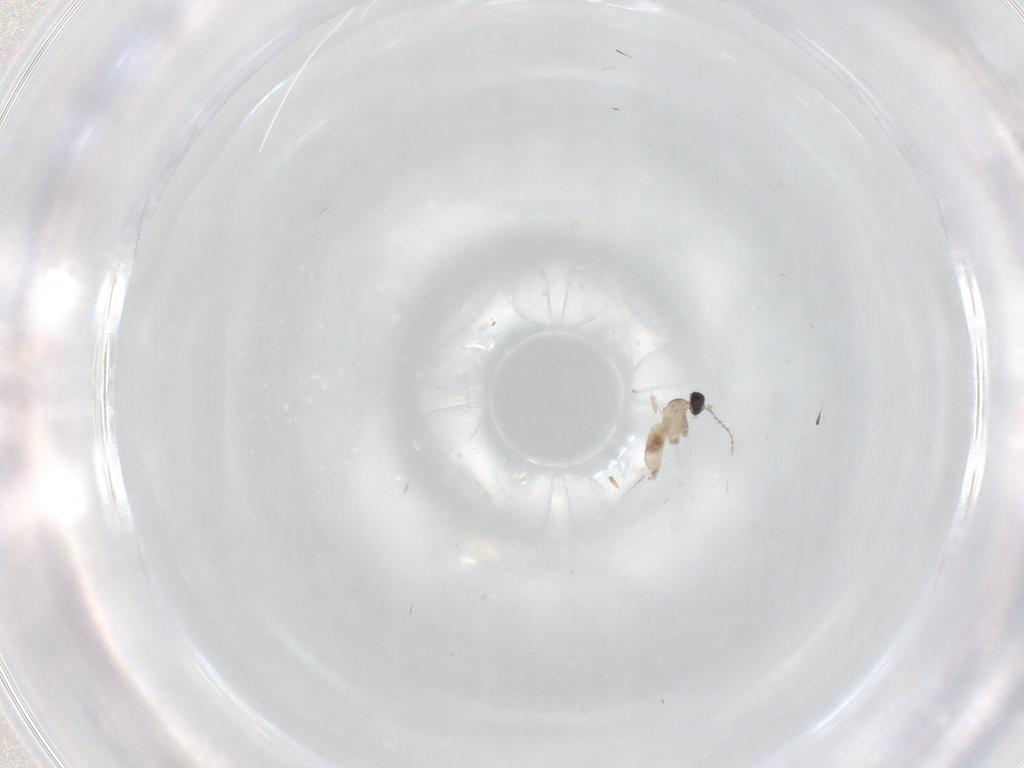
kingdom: Animalia
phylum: Arthropoda
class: Insecta
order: Diptera
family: Cecidomyiidae
